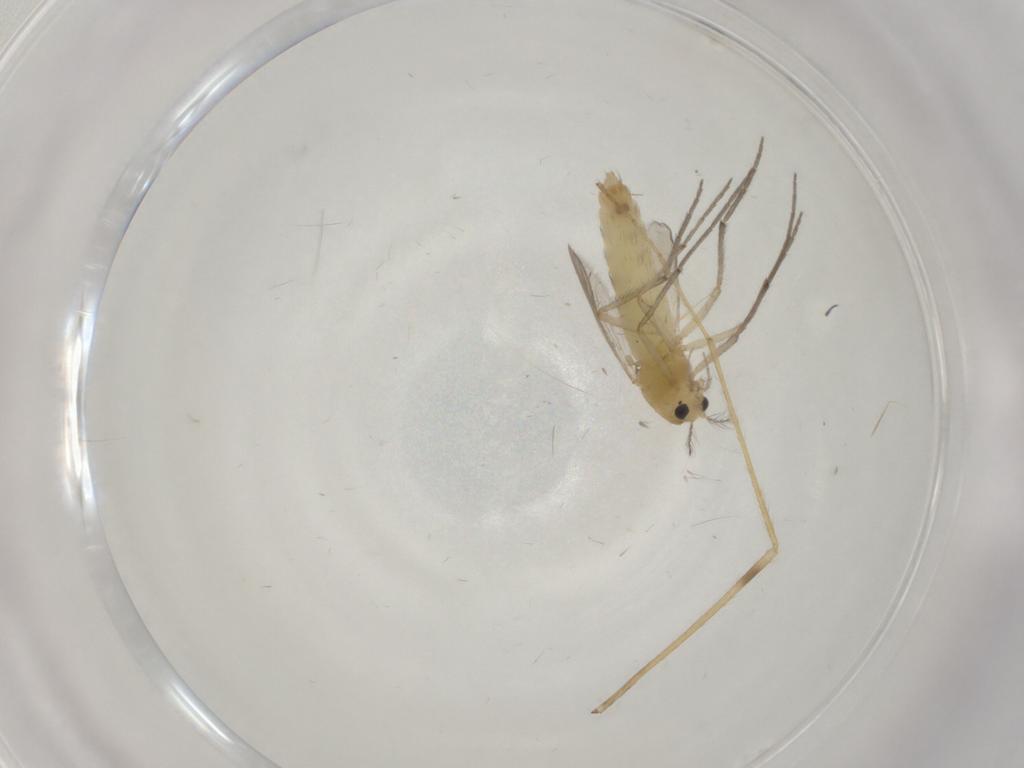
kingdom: Animalia
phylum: Arthropoda
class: Insecta
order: Diptera
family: Chironomidae
